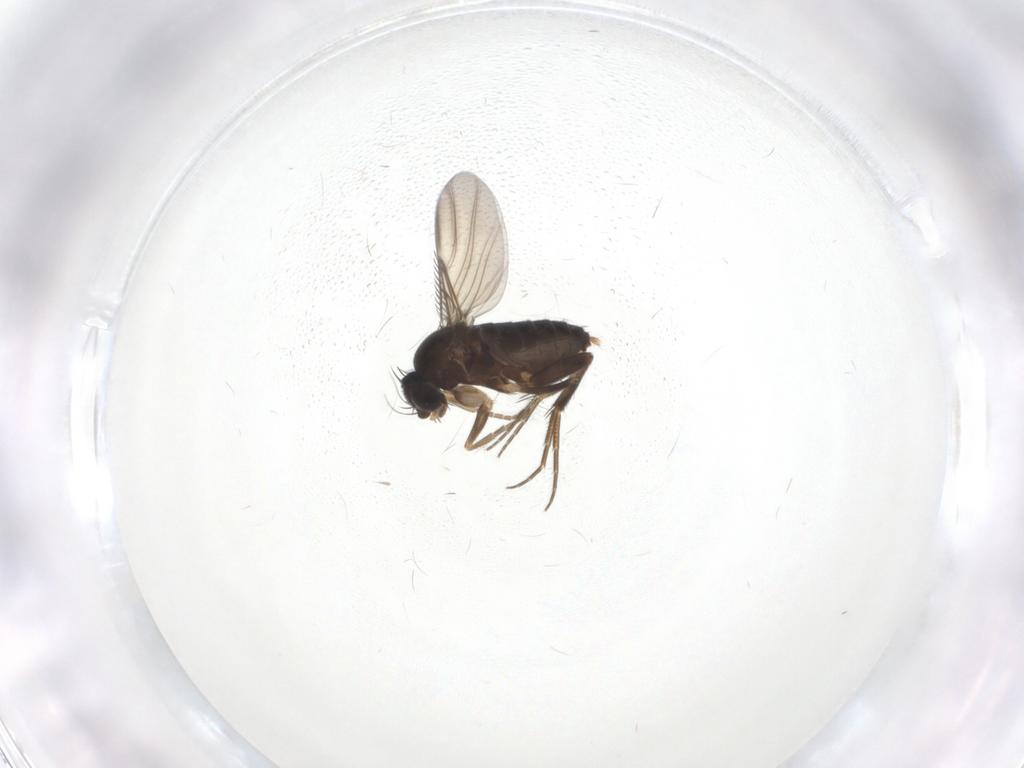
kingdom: Animalia
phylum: Arthropoda
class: Insecta
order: Diptera
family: Phoridae
